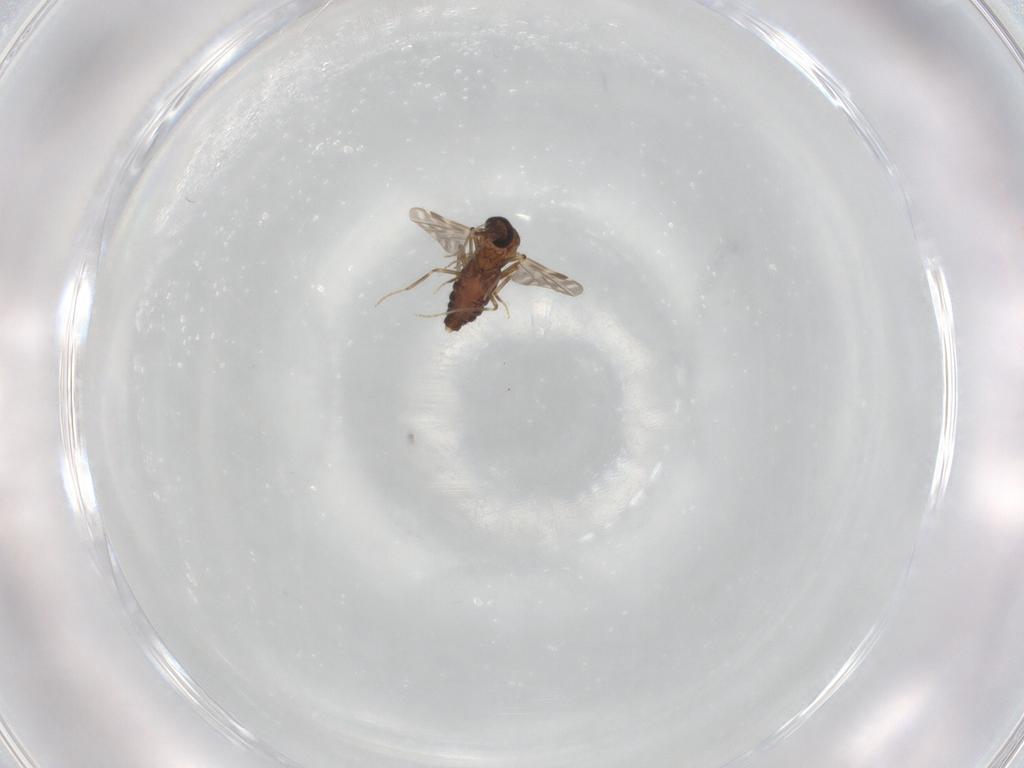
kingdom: Animalia
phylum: Arthropoda
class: Insecta
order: Diptera
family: Ceratopogonidae
